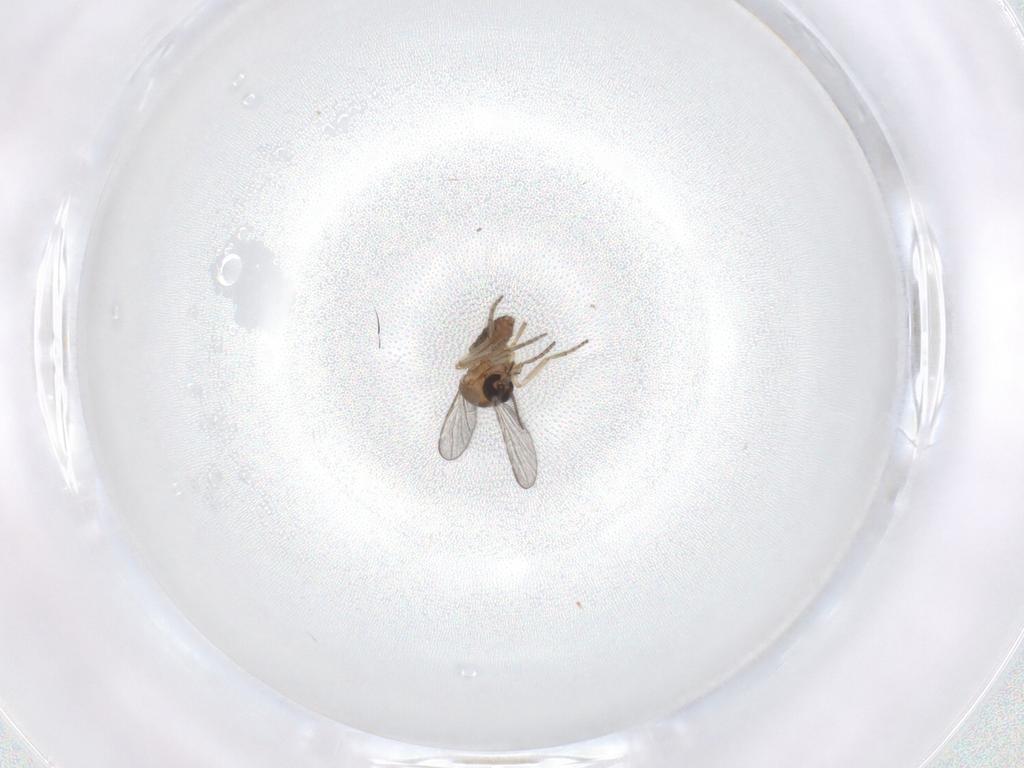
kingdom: Animalia
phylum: Arthropoda
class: Insecta
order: Diptera
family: Ceratopogonidae
